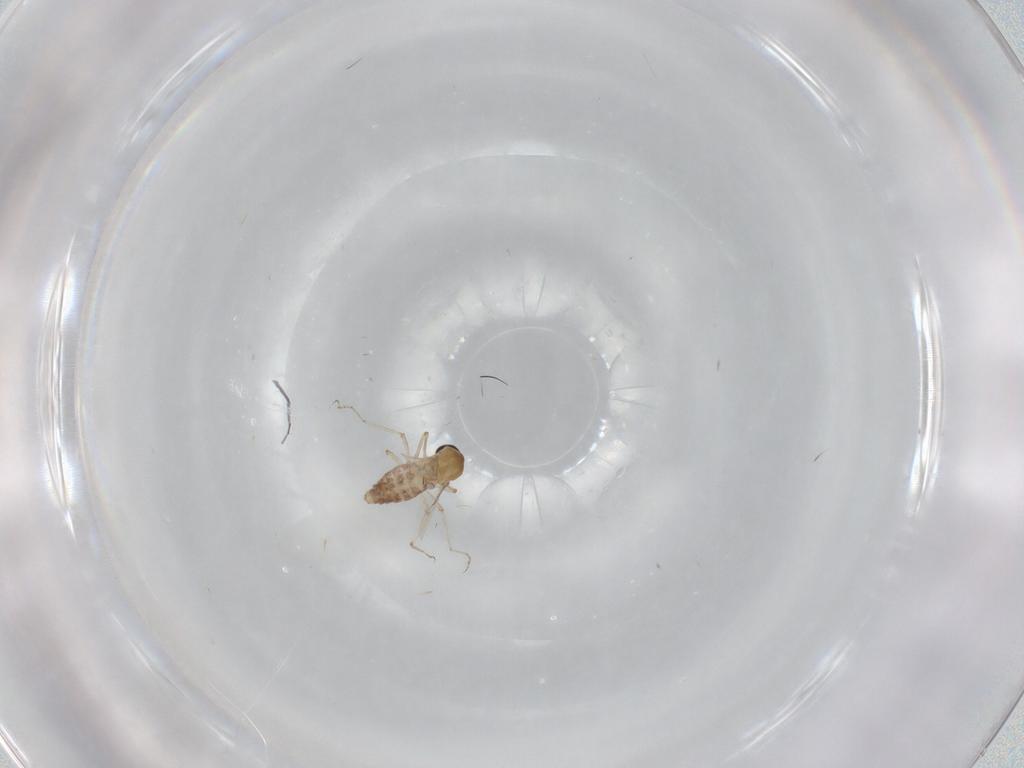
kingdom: Animalia
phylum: Arthropoda
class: Insecta
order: Diptera
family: Ceratopogonidae
